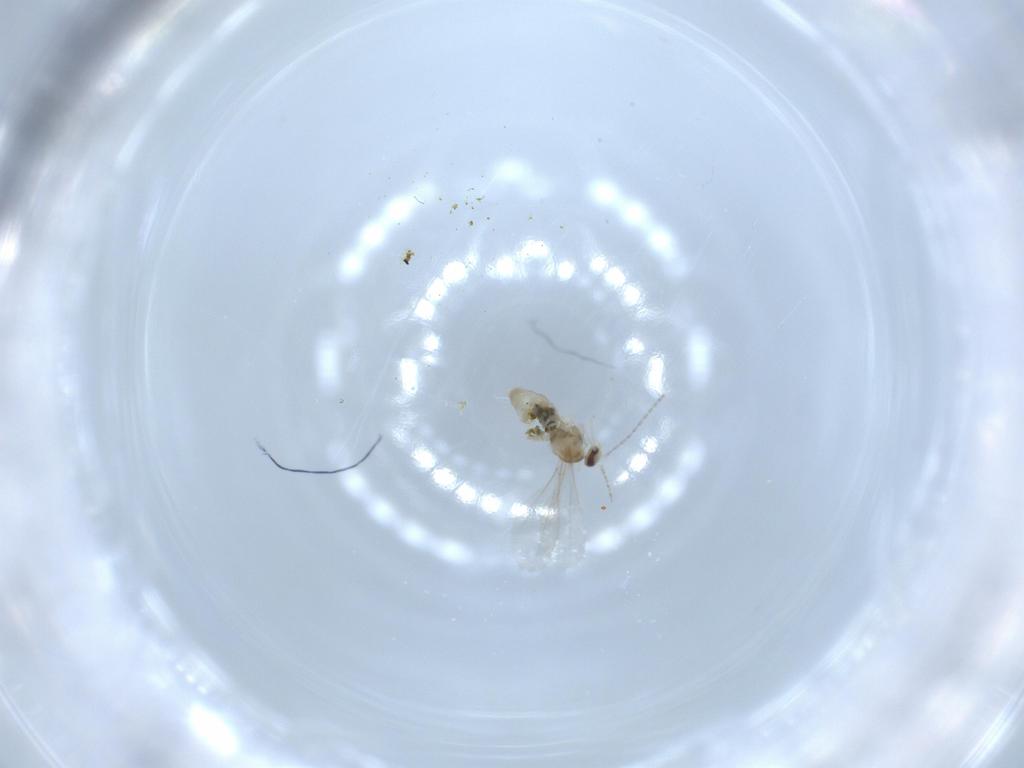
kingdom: Animalia
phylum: Arthropoda
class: Insecta
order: Diptera
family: Cecidomyiidae
